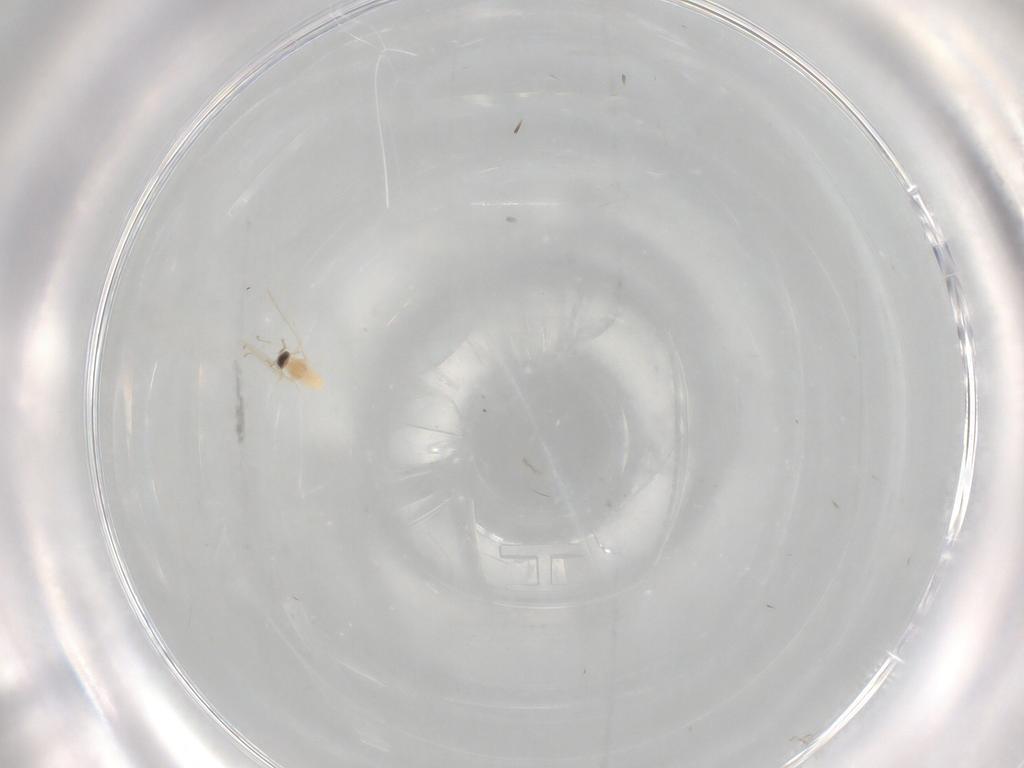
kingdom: Animalia
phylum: Arthropoda
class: Insecta
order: Diptera
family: Cecidomyiidae
